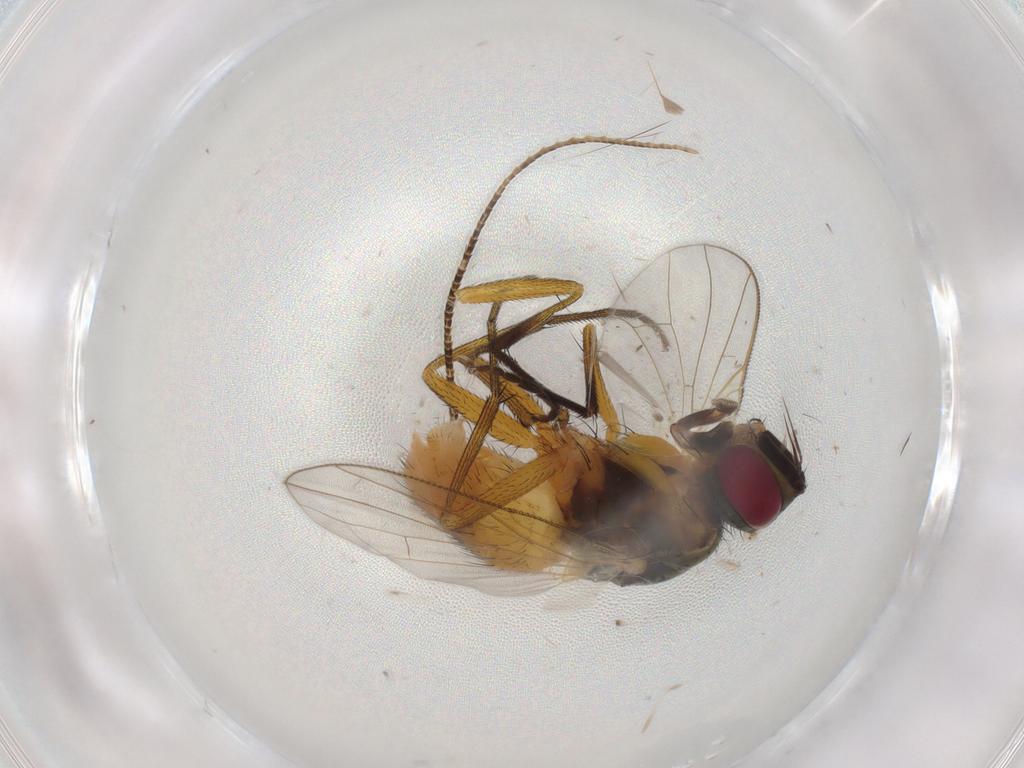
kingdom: Animalia
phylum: Arthropoda
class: Insecta
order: Diptera
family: Muscidae
